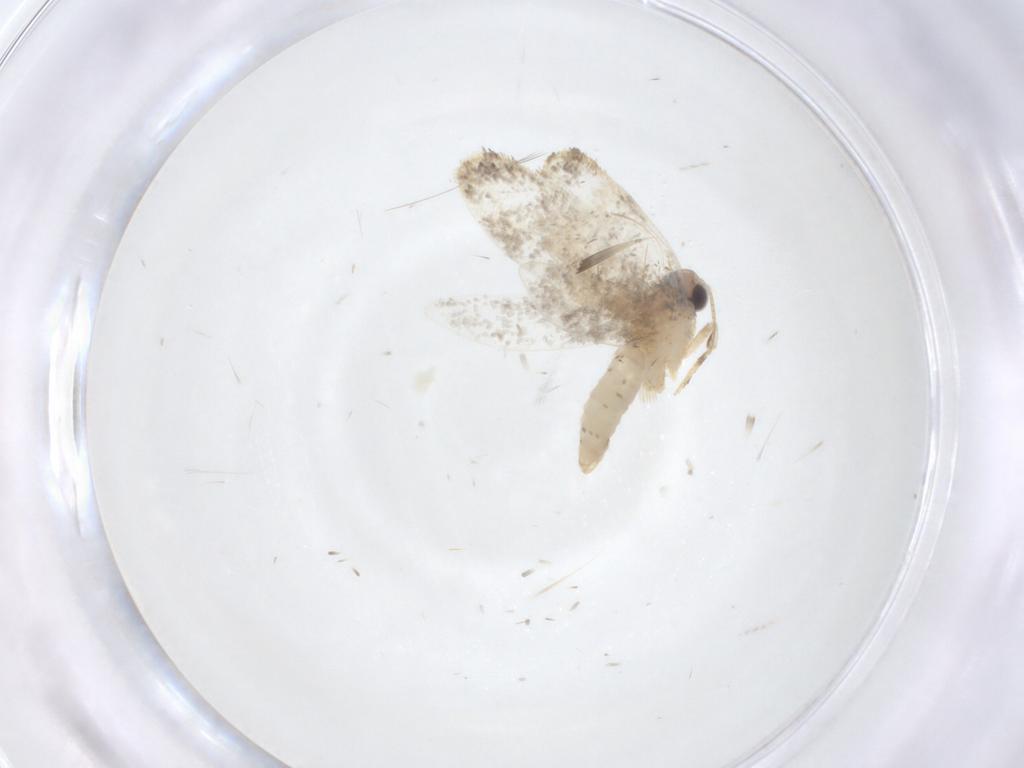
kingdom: Animalia
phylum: Arthropoda
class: Insecta
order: Lepidoptera
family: Psychidae
